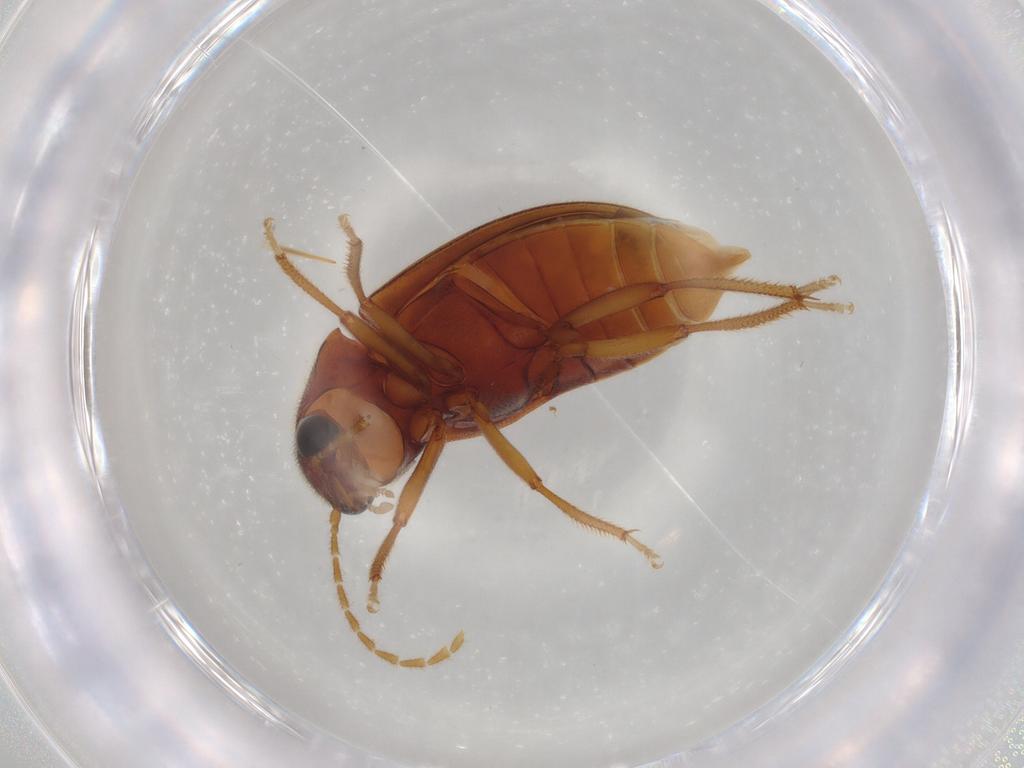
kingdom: Animalia
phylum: Arthropoda
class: Insecta
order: Coleoptera
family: Ptilodactylidae
